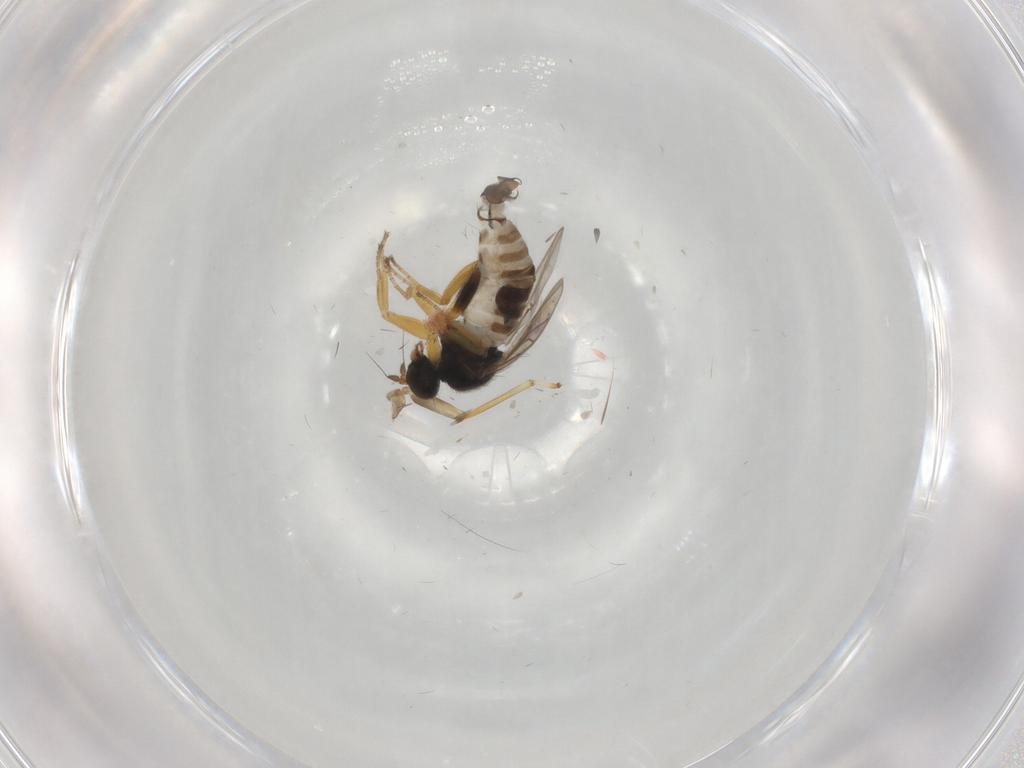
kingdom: Animalia
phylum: Arthropoda
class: Insecta
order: Diptera
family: Hybotidae
